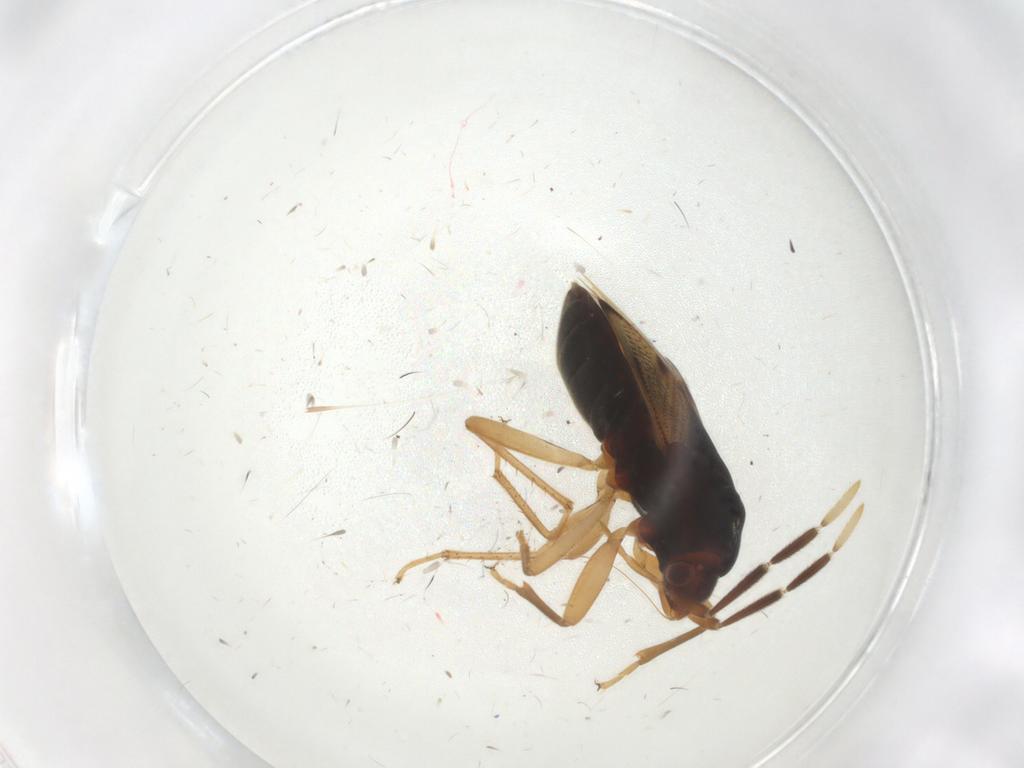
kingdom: Animalia
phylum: Arthropoda
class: Insecta
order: Hemiptera
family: Rhyparochromidae
